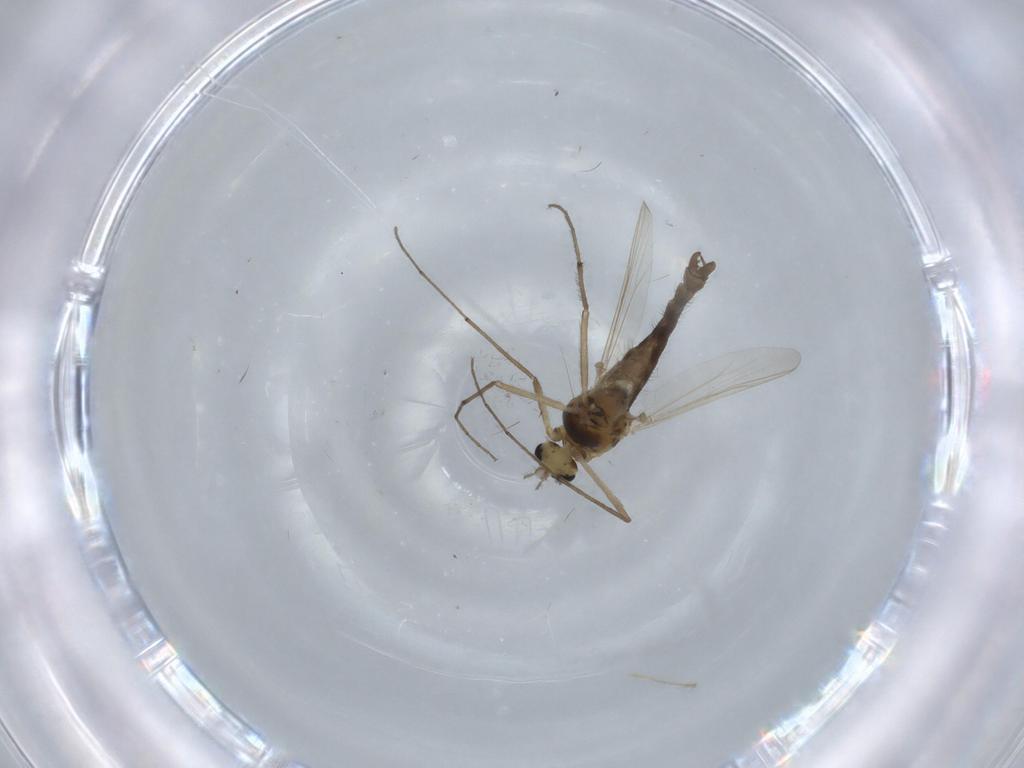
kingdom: Animalia
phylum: Arthropoda
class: Insecta
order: Diptera
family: Chironomidae
